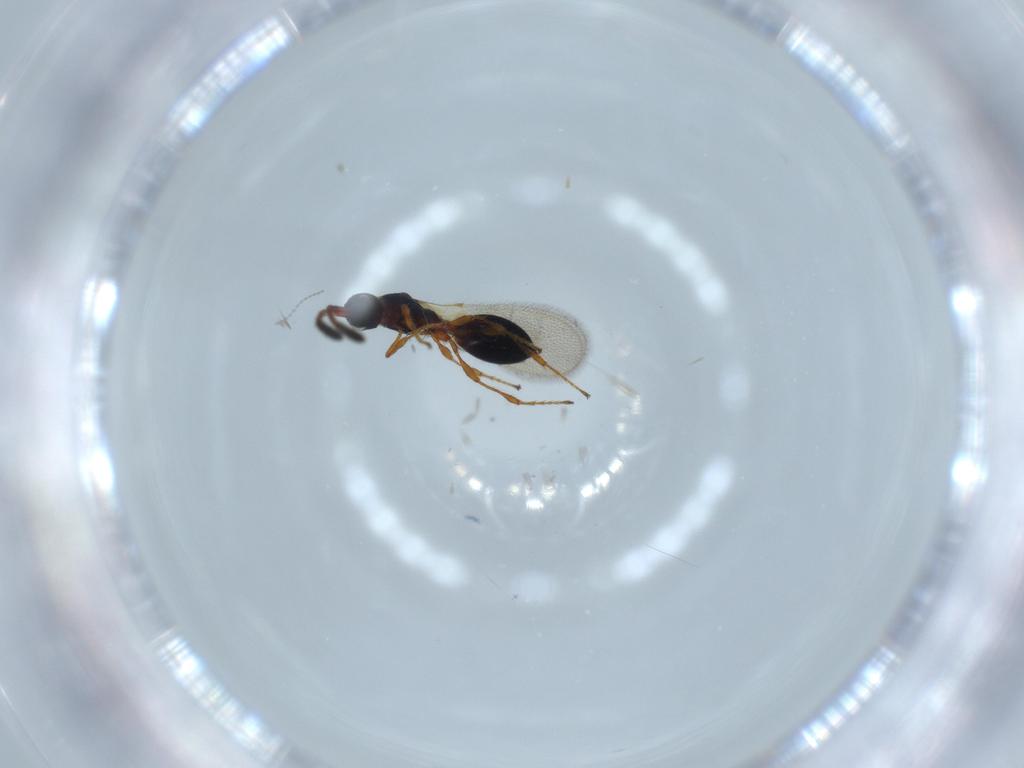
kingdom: Animalia
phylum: Arthropoda
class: Insecta
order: Hymenoptera
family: Diapriidae
